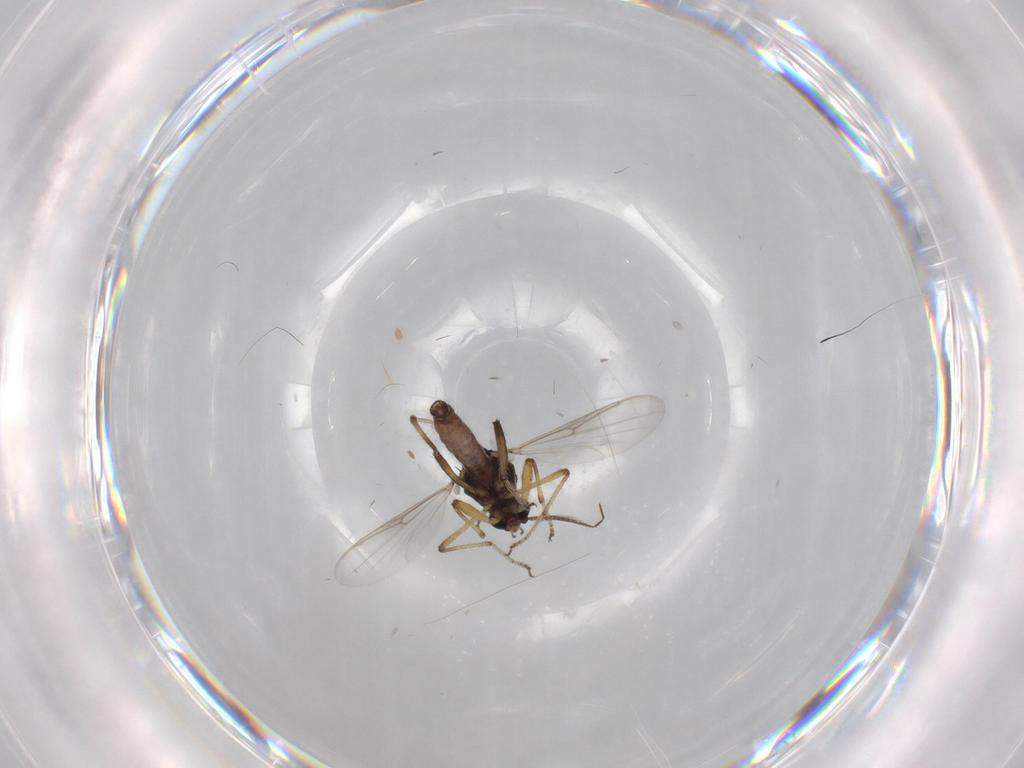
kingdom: Animalia
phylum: Arthropoda
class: Insecta
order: Diptera
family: Ceratopogonidae
